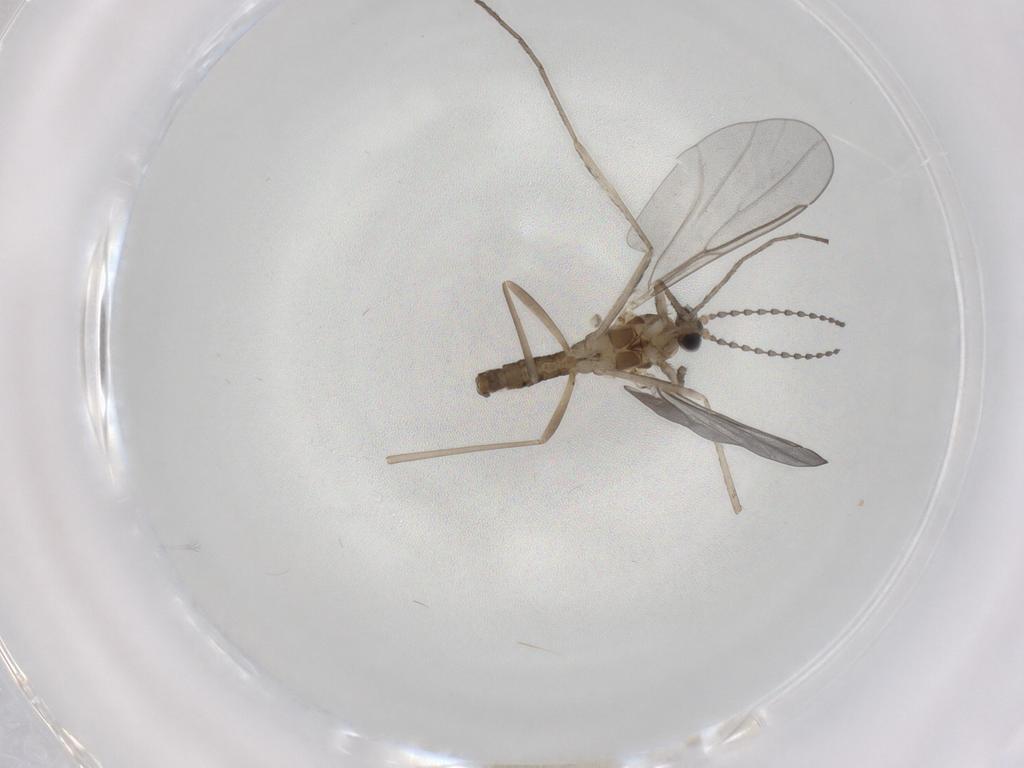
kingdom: Animalia
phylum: Arthropoda
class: Insecta
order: Diptera
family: Cecidomyiidae
